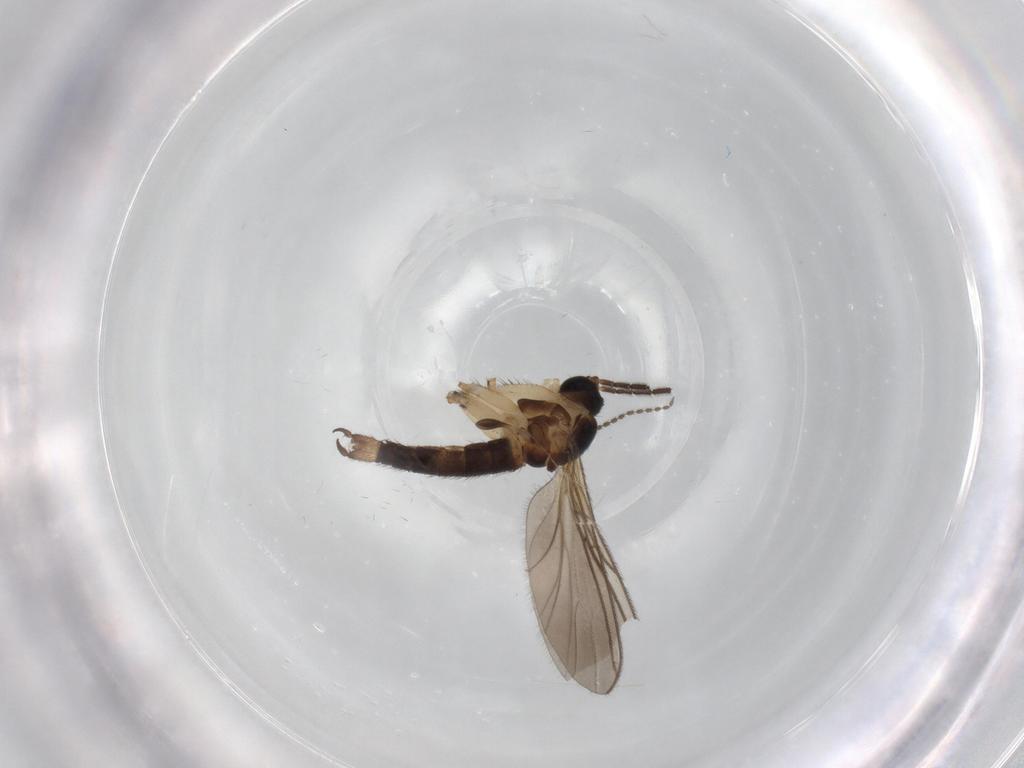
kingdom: Animalia
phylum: Arthropoda
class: Insecta
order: Diptera
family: Sciaridae
